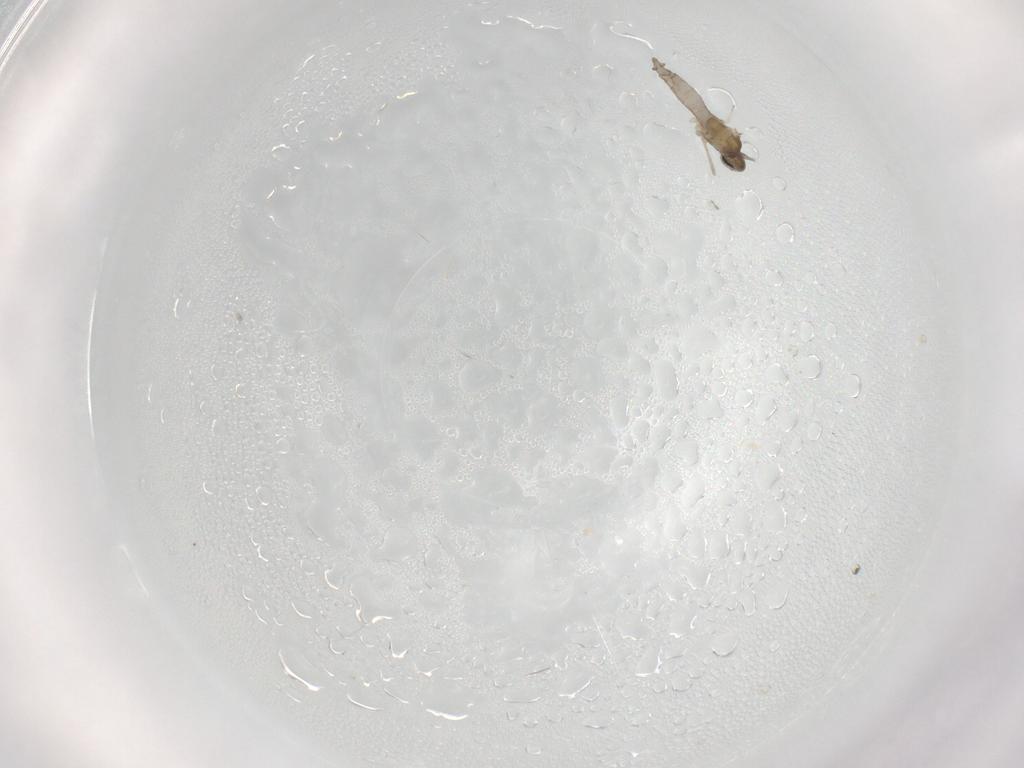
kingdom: Animalia
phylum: Arthropoda
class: Insecta
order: Diptera
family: Cecidomyiidae
